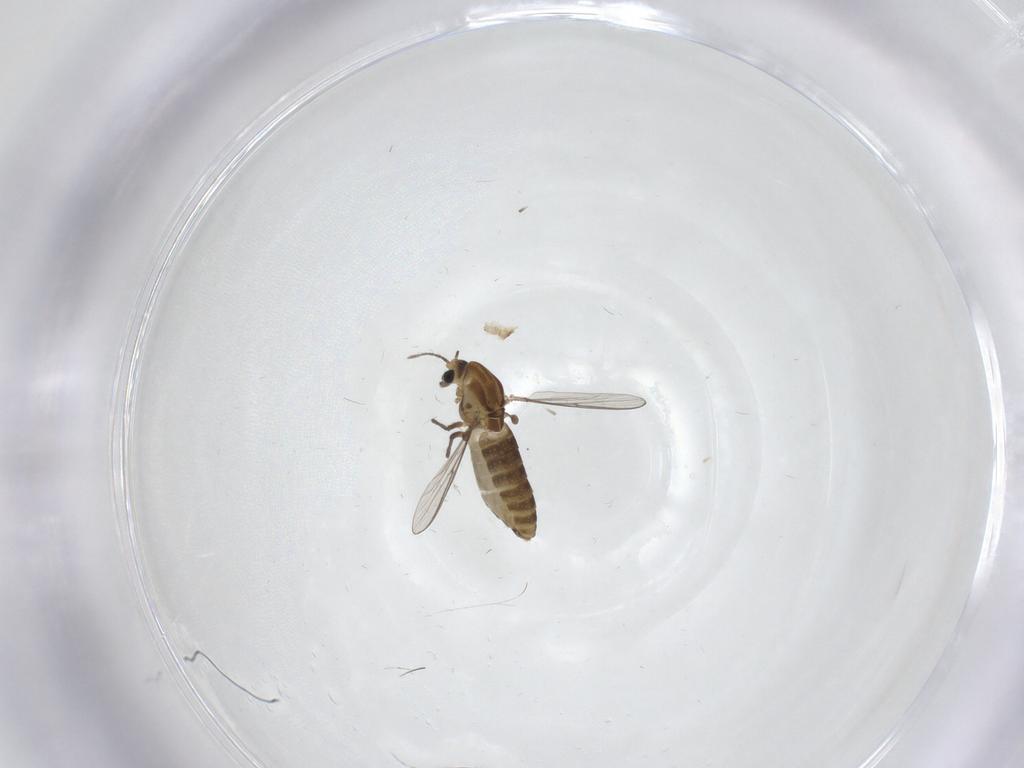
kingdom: Animalia
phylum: Arthropoda
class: Insecta
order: Diptera
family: Chironomidae
